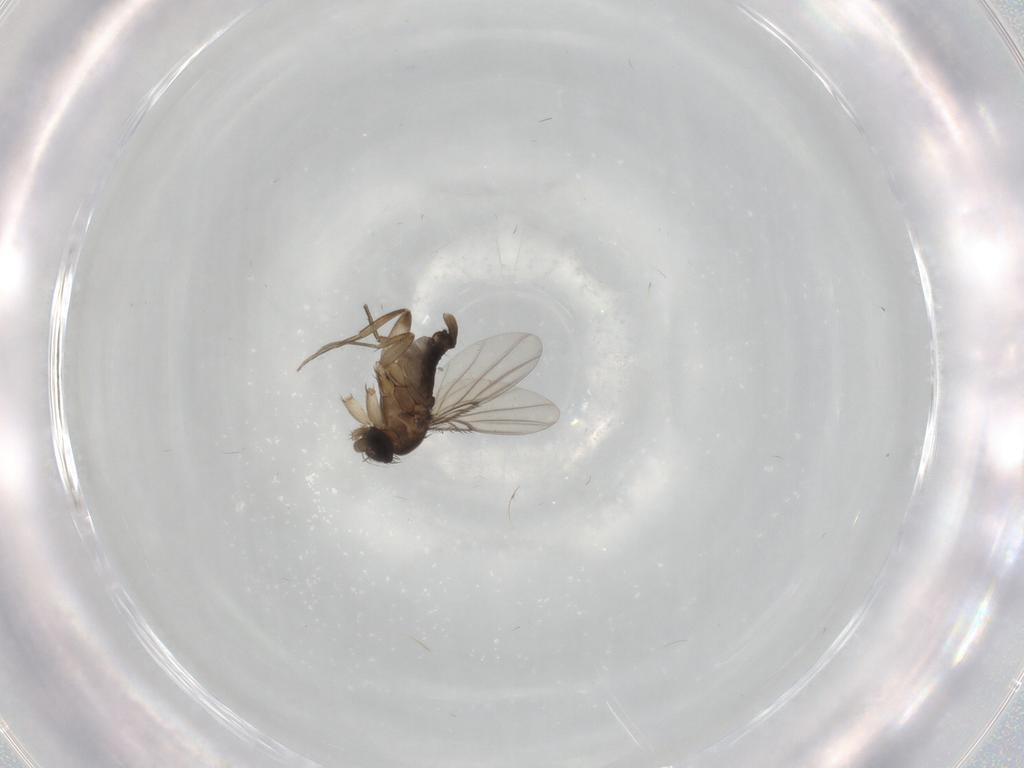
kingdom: Animalia
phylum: Arthropoda
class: Insecta
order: Diptera
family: Phoridae
